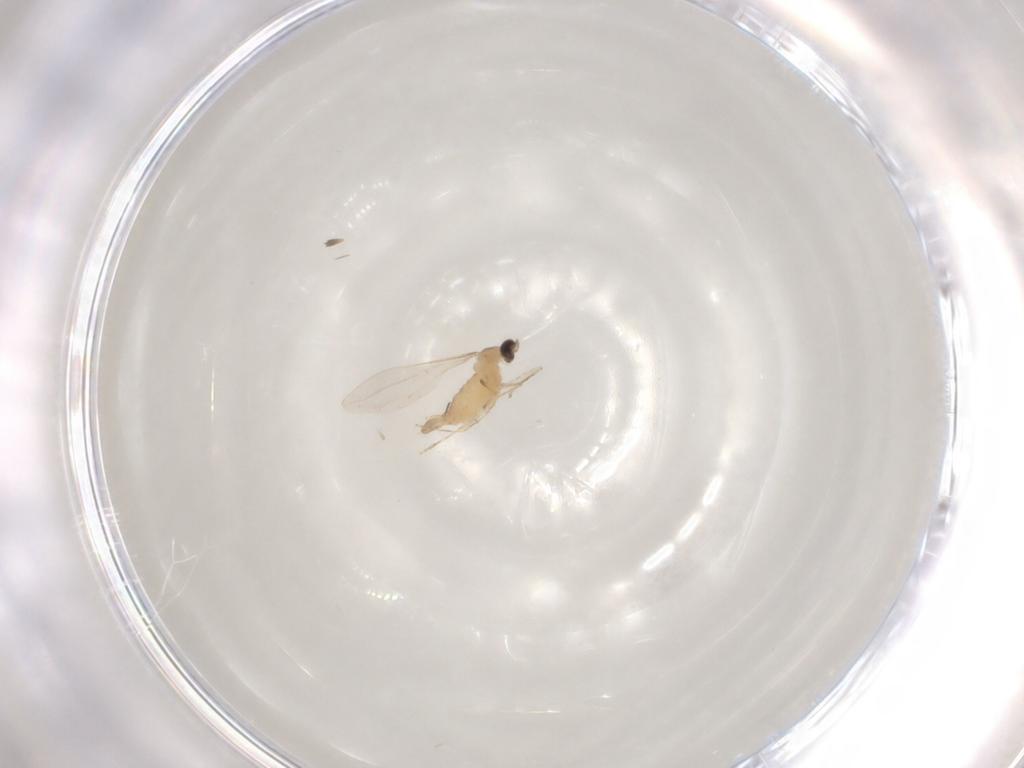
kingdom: Animalia
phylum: Arthropoda
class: Insecta
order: Diptera
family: Cecidomyiidae
